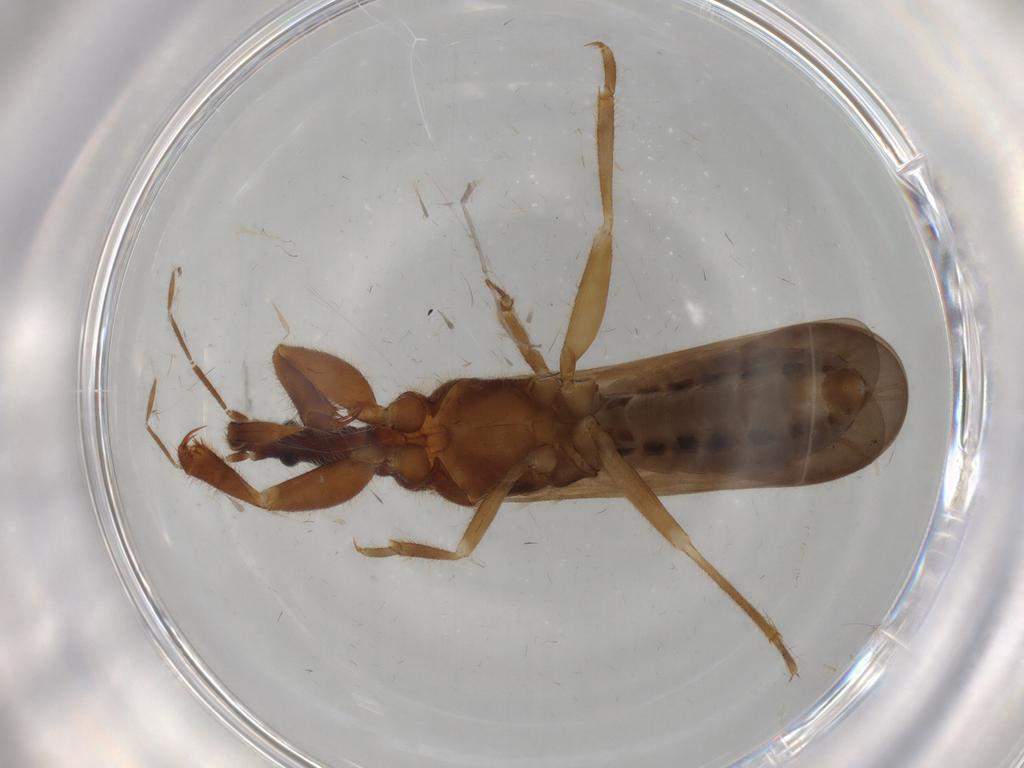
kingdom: Animalia
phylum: Arthropoda
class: Insecta
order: Hemiptera
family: Enicocephalidae
